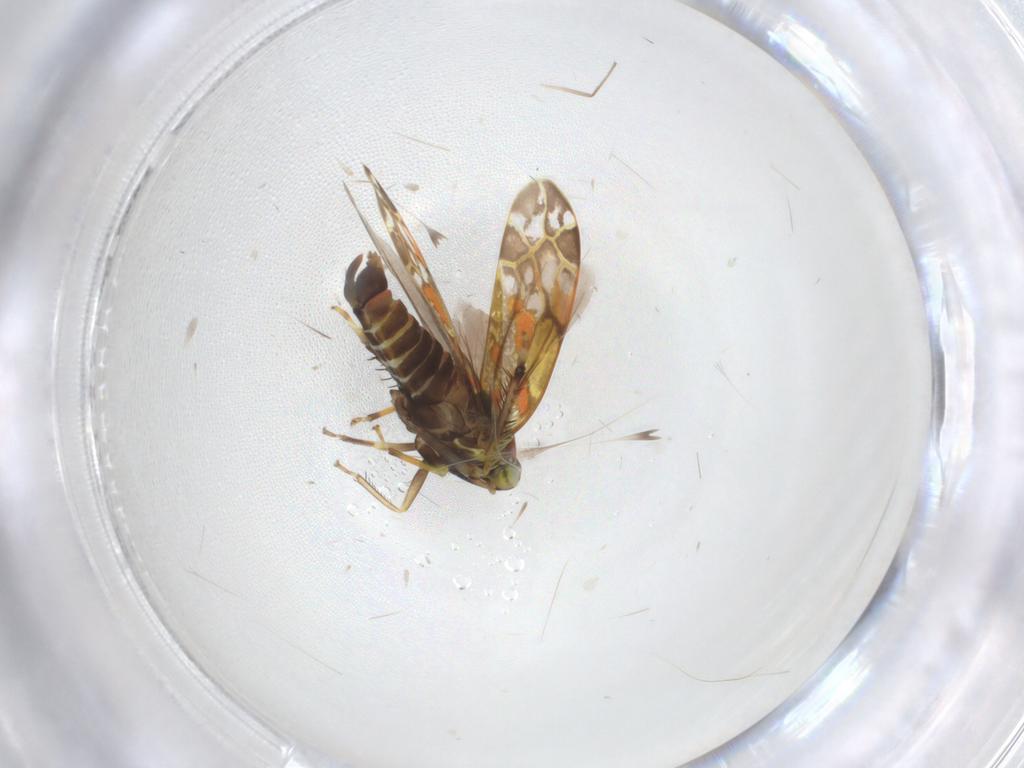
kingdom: Animalia
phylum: Arthropoda
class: Insecta
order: Hemiptera
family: Cicadellidae
